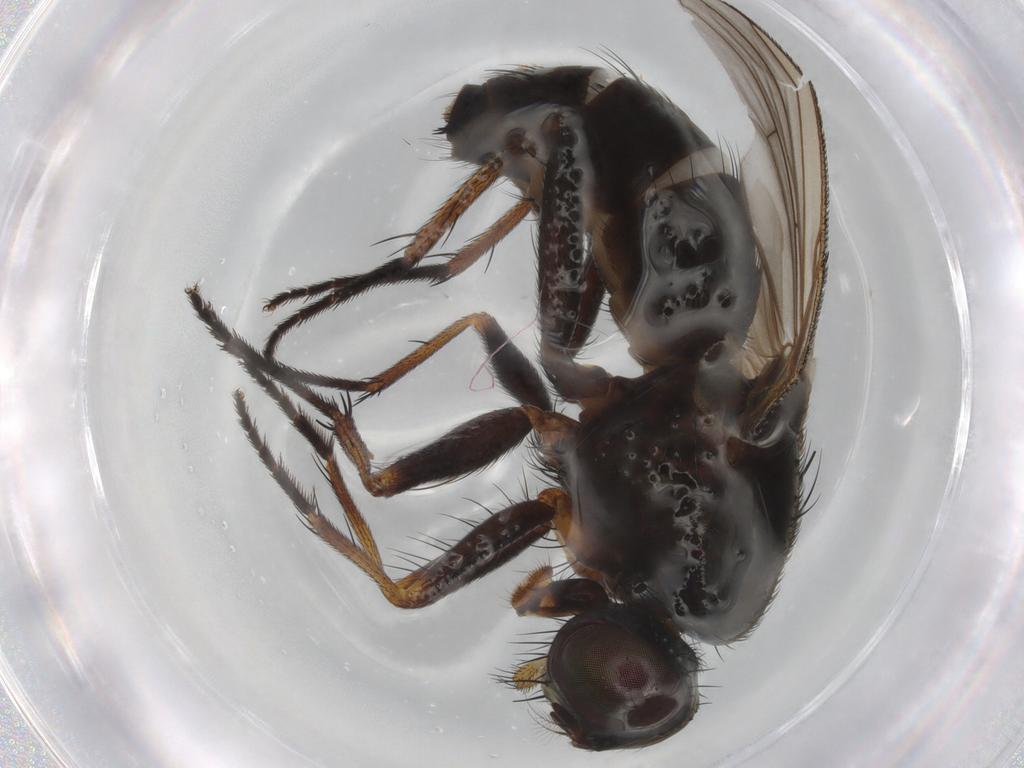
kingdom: Animalia
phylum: Arthropoda
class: Insecta
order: Diptera
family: Muscidae
